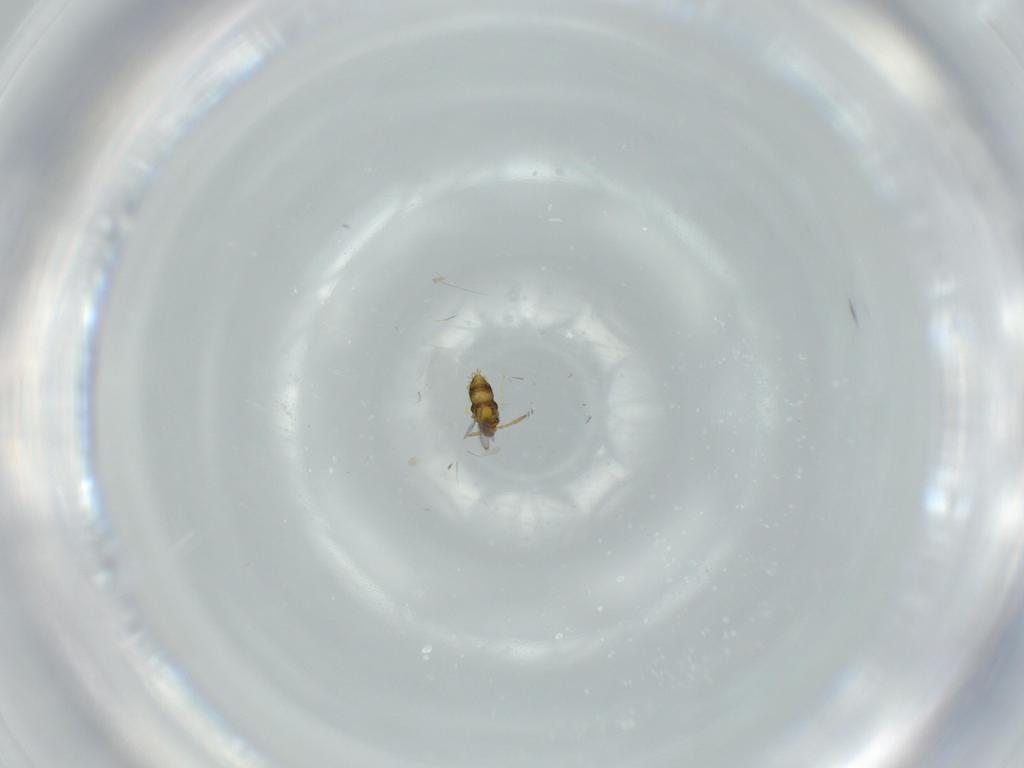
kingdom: Animalia
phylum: Arthropoda
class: Insecta
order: Hymenoptera
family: Aphelinidae
